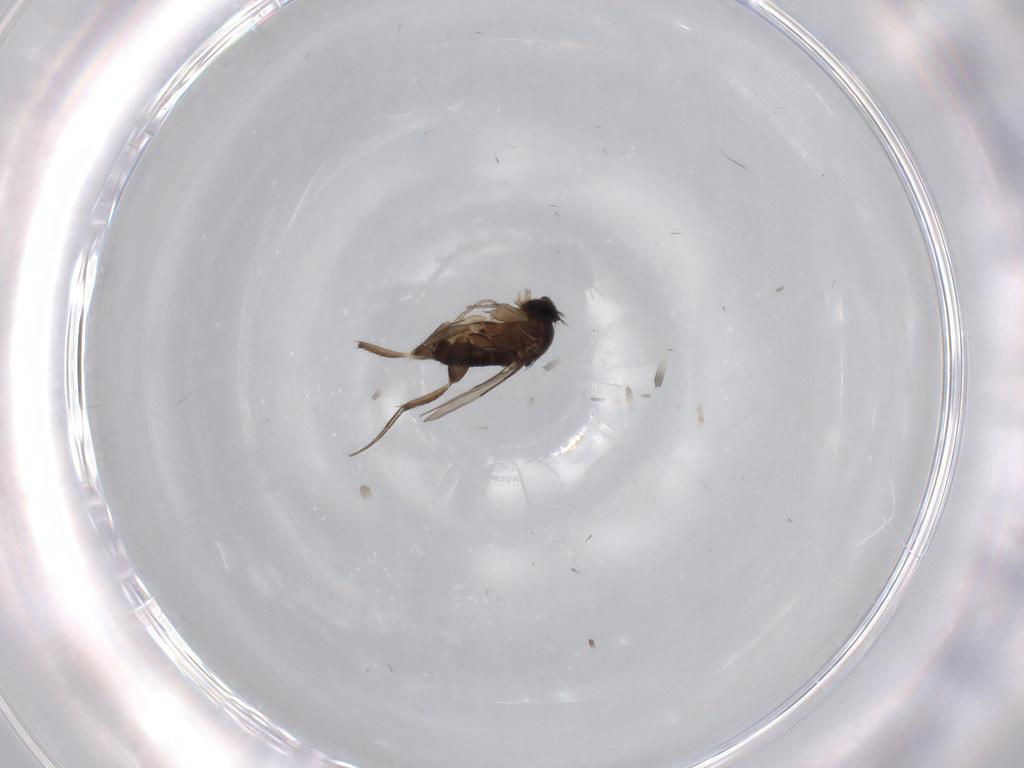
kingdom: Animalia
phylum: Arthropoda
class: Insecta
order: Diptera
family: Phoridae
